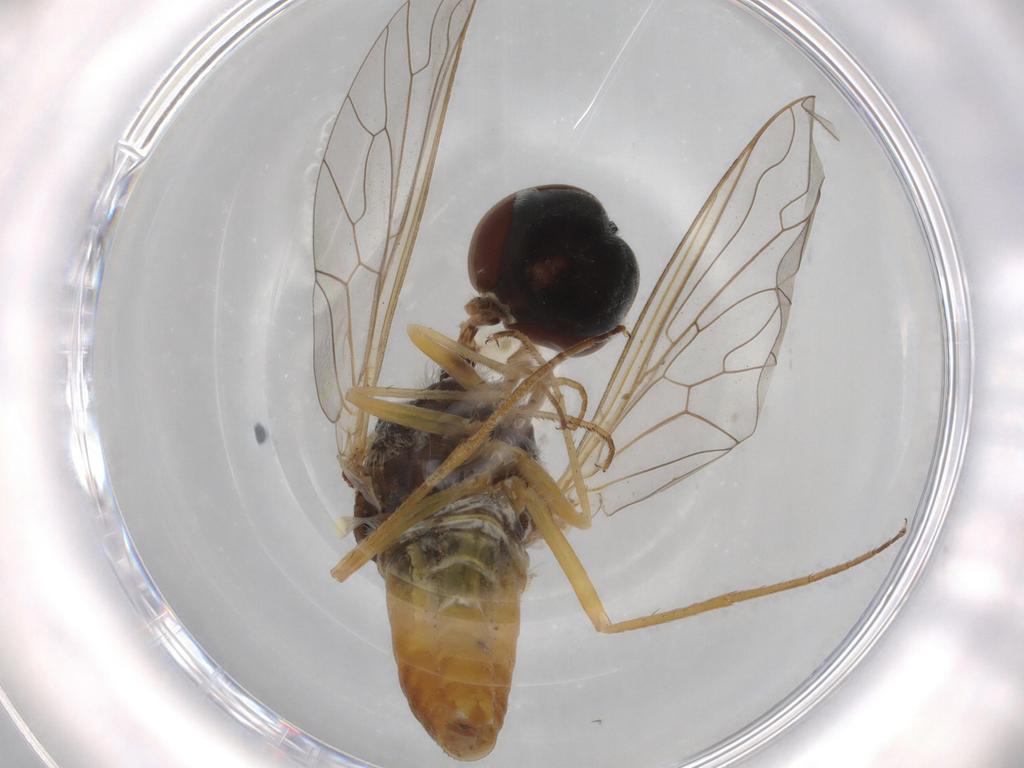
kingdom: Animalia
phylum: Arthropoda
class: Insecta
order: Diptera
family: Bombyliidae
